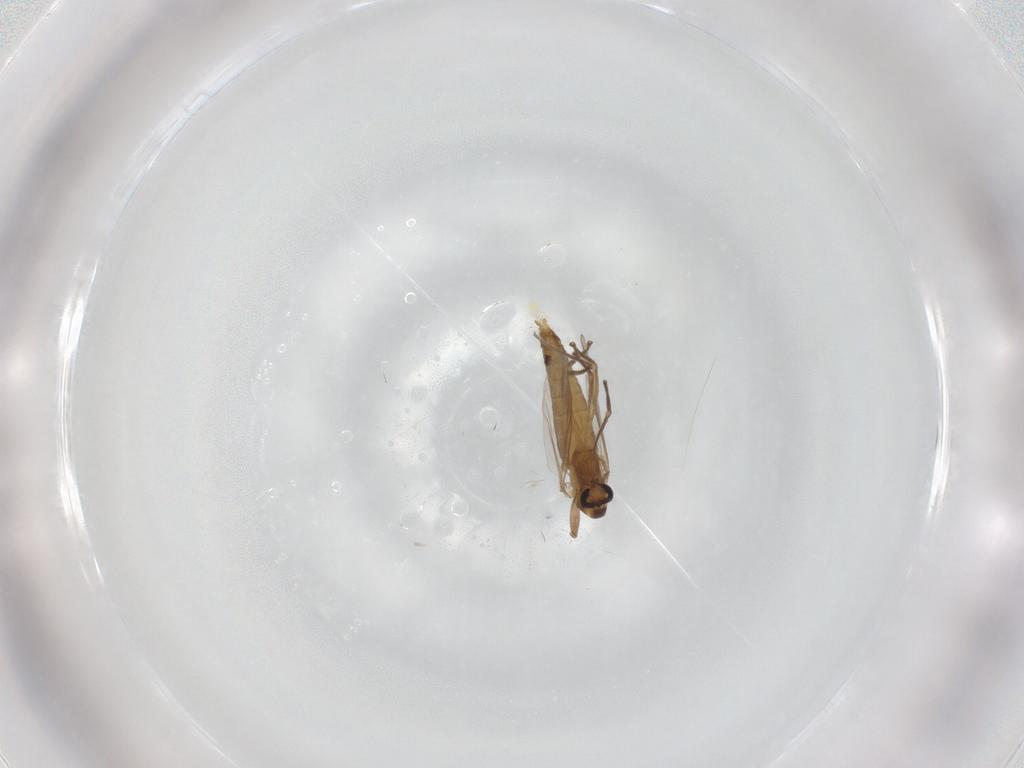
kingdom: Animalia
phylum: Arthropoda
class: Insecta
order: Diptera
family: Chironomidae
